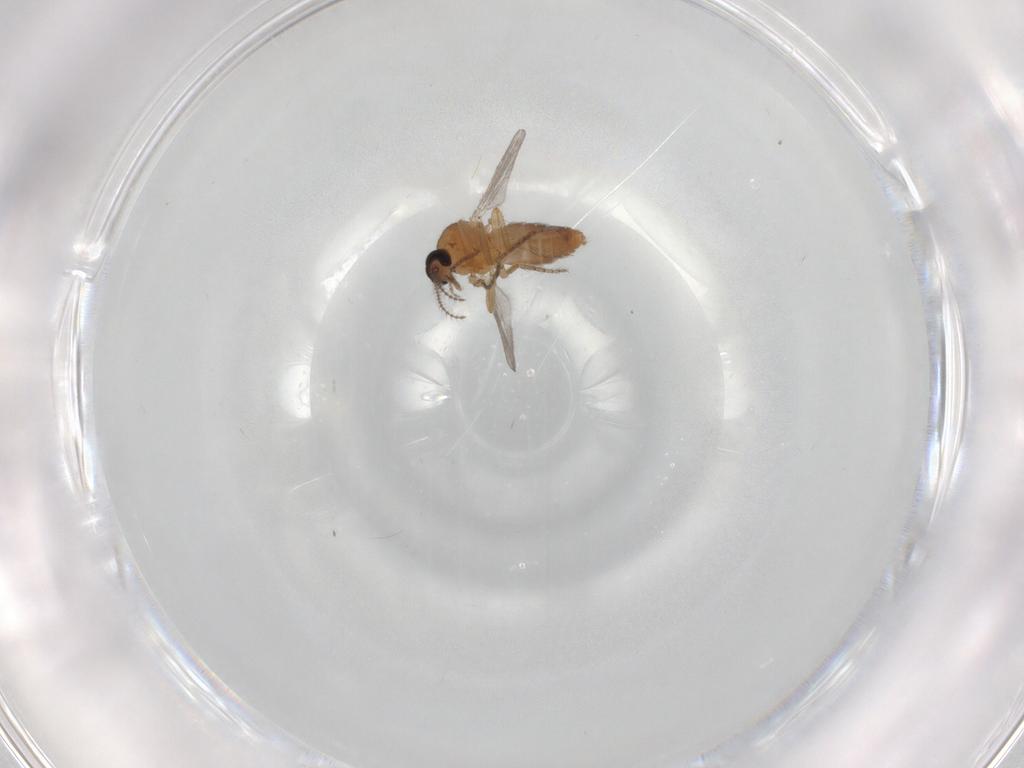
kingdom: Animalia
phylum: Arthropoda
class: Insecta
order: Diptera
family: Ceratopogonidae
